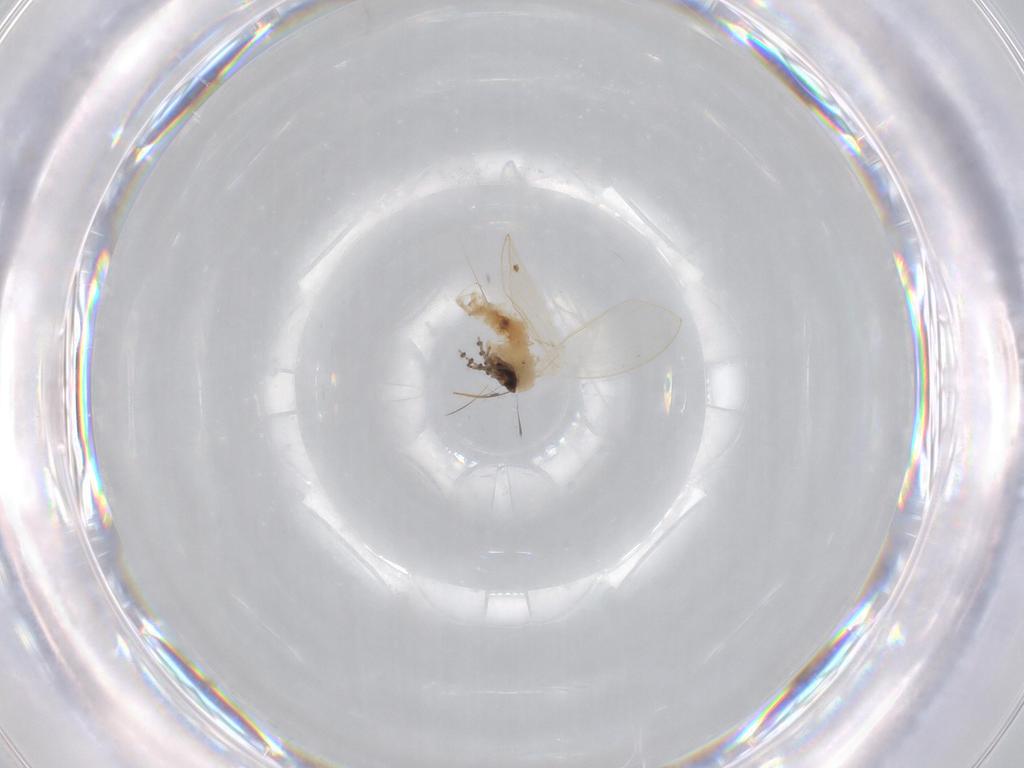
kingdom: Animalia
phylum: Arthropoda
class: Insecta
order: Diptera
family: Psychodidae
